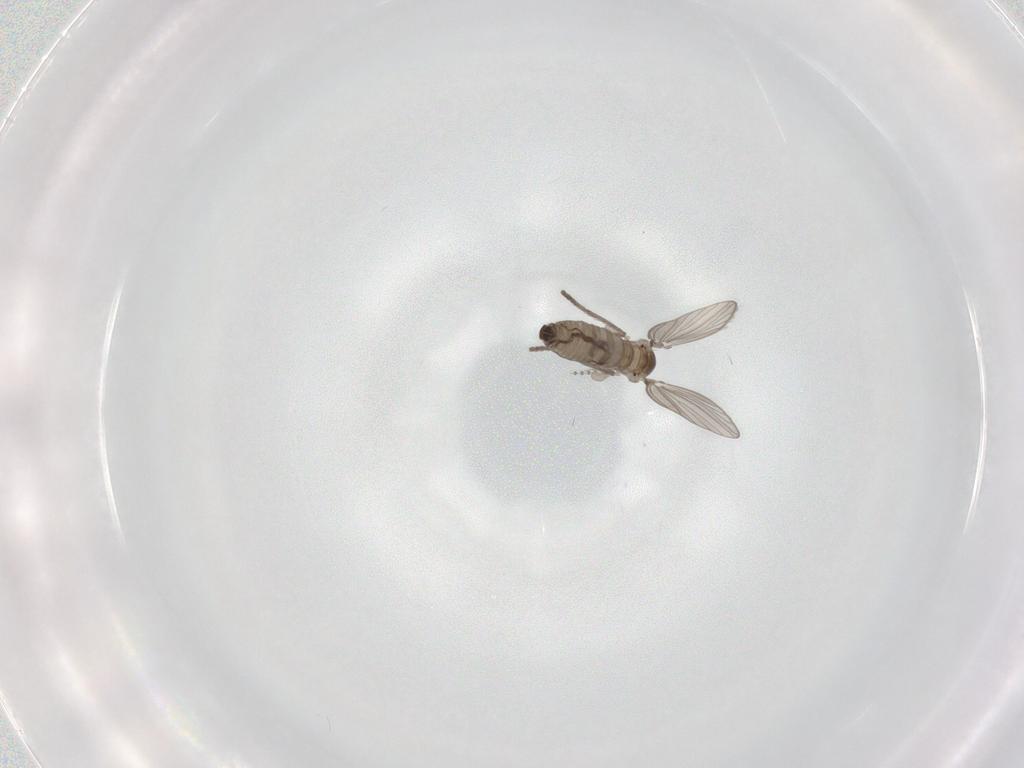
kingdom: Animalia
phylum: Arthropoda
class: Insecta
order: Diptera
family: Psychodidae
